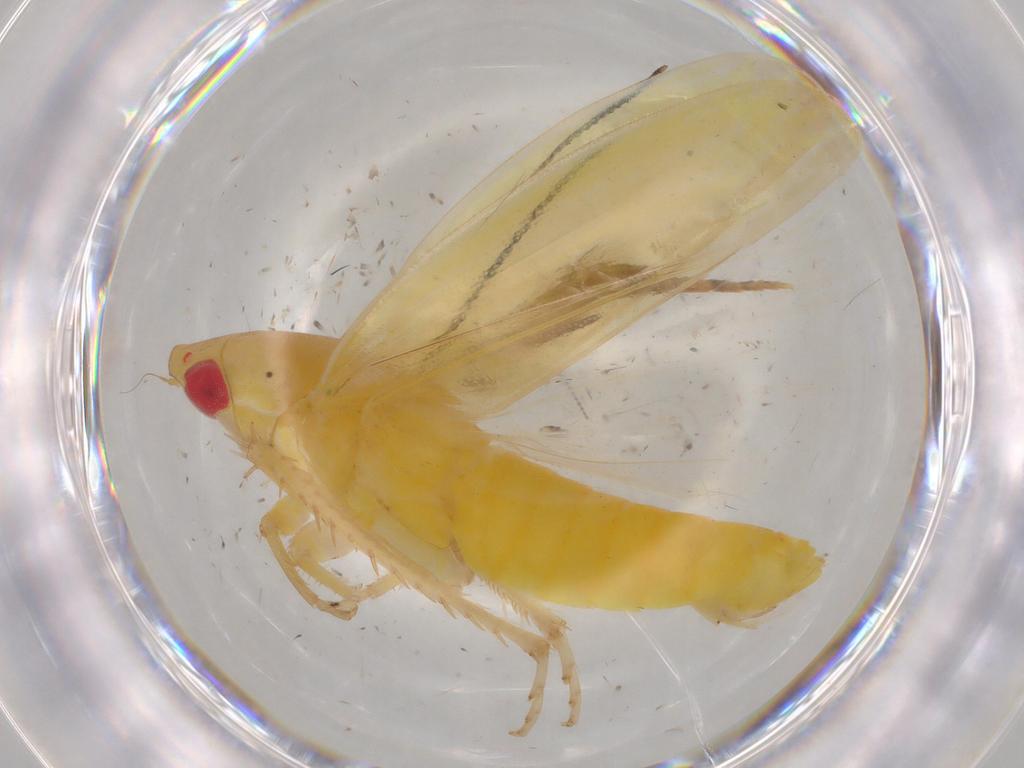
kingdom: Animalia
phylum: Arthropoda
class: Insecta
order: Hemiptera
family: Cicadellidae
